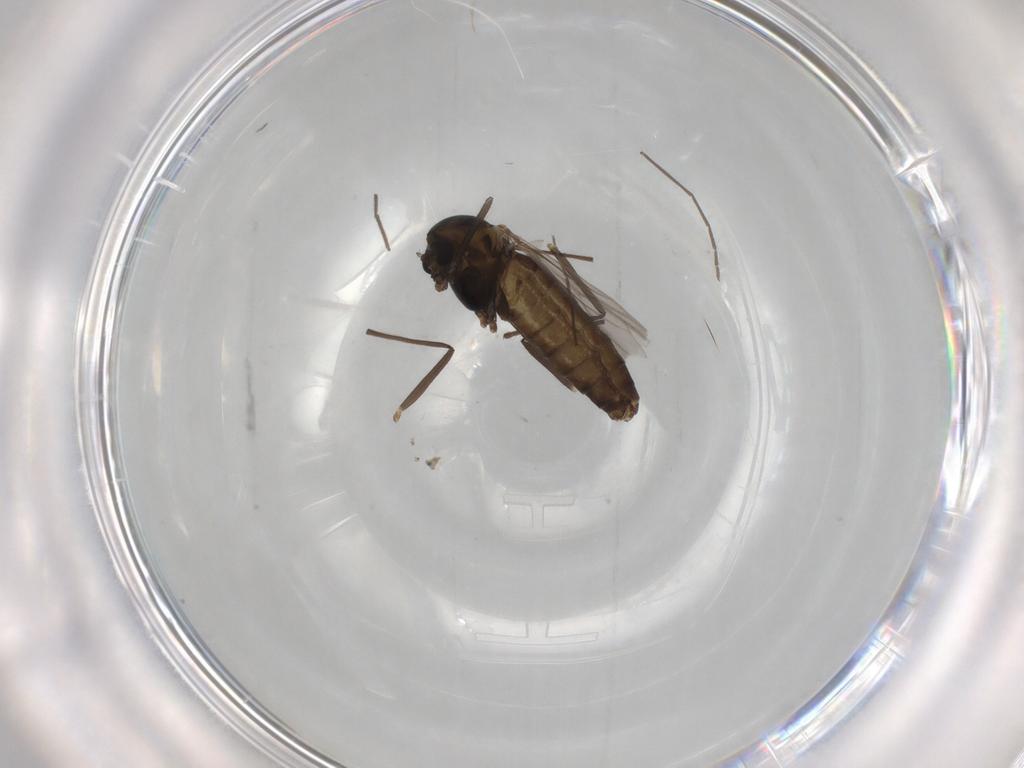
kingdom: Animalia
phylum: Arthropoda
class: Insecta
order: Diptera
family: Chironomidae
